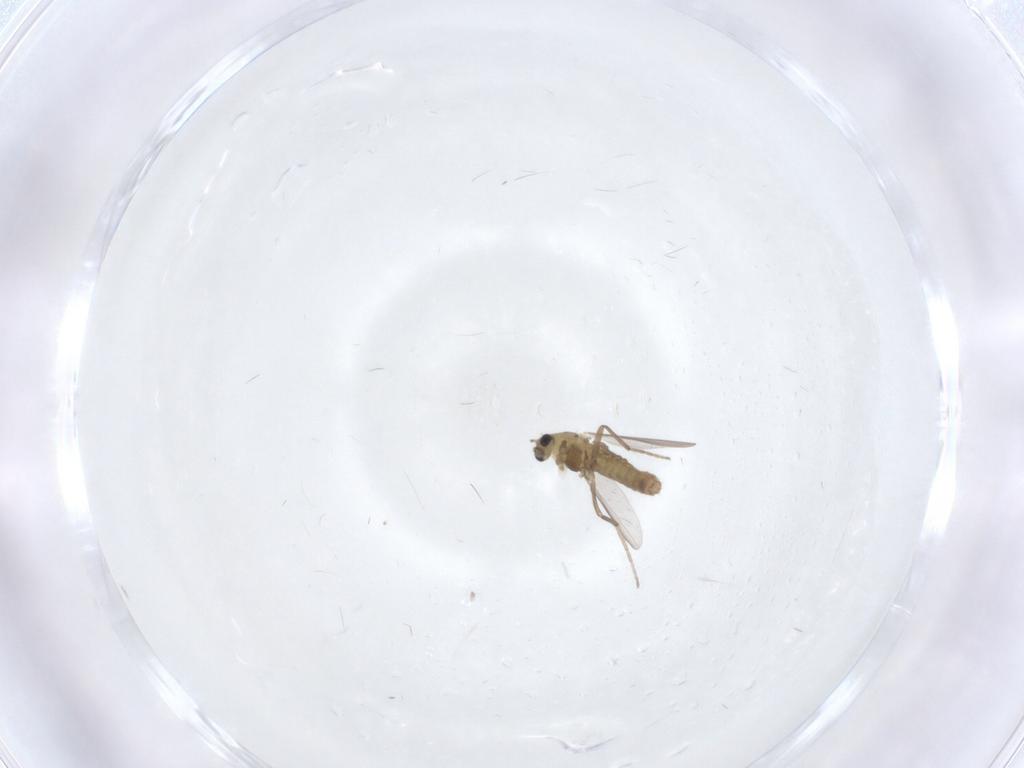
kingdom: Animalia
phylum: Arthropoda
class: Insecta
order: Diptera
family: Chironomidae
